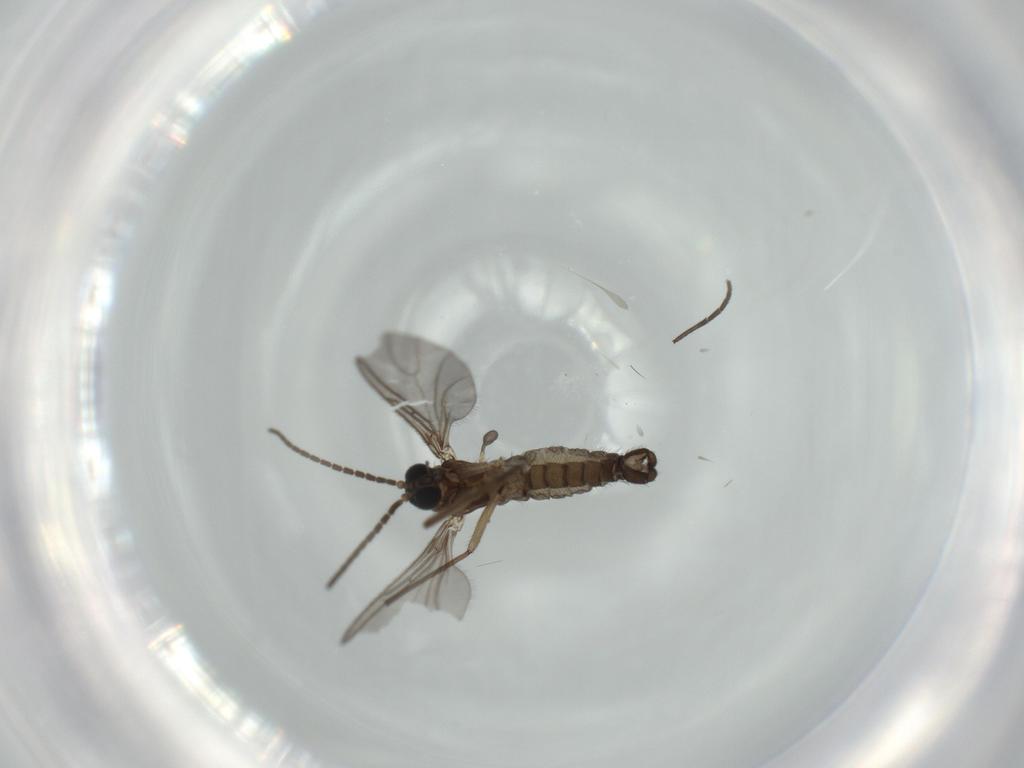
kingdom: Animalia
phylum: Arthropoda
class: Insecta
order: Diptera
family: Sciaridae
